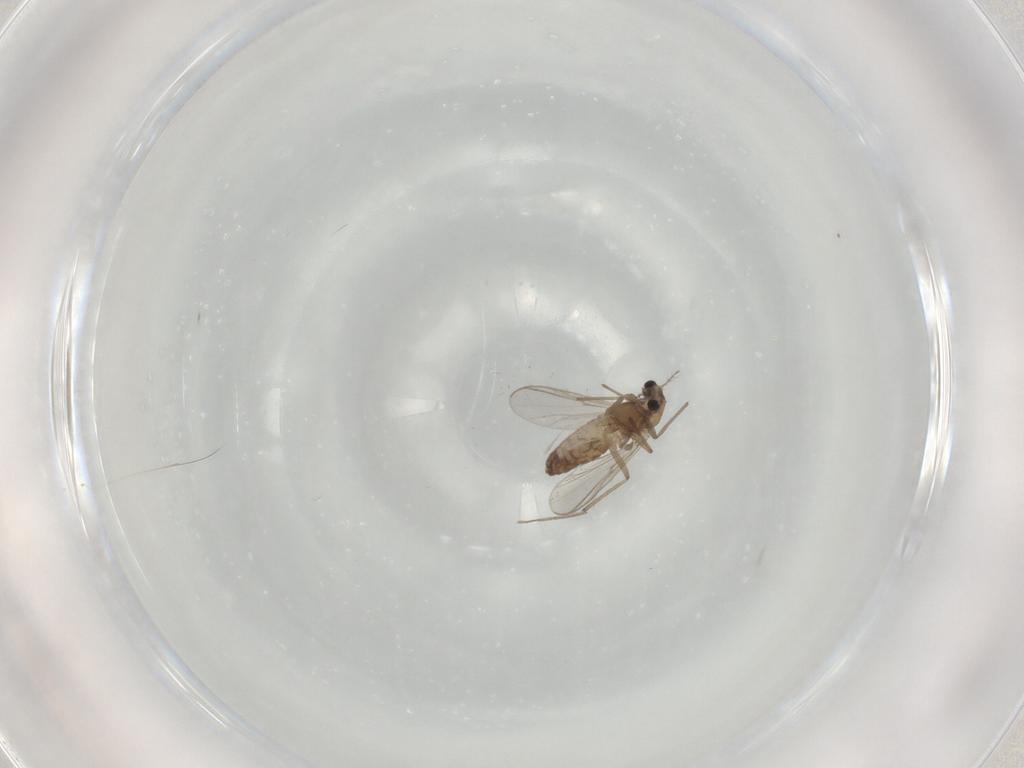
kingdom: Animalia
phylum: Arthropoda
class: Insecta
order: Diptera
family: Chironomidae
